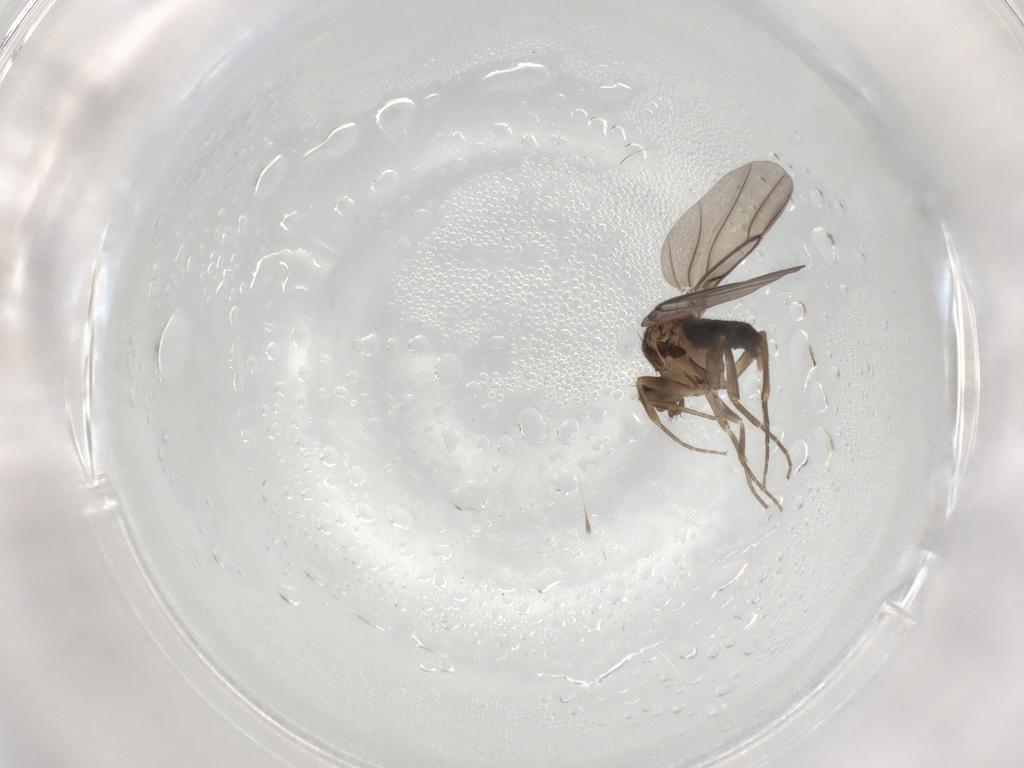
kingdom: Animalia
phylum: Arthropoda
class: Insecta
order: Diptera
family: Phoridae
